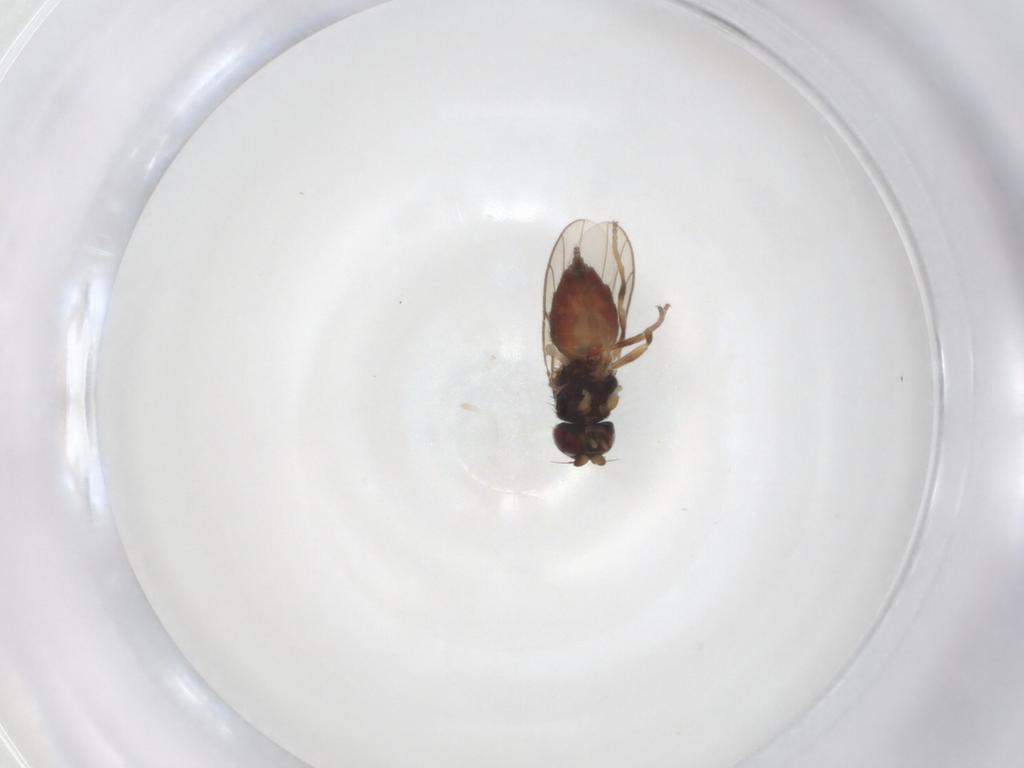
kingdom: Animalia
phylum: Arthropoda
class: Insecta
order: Diptera
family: Chloropidae
